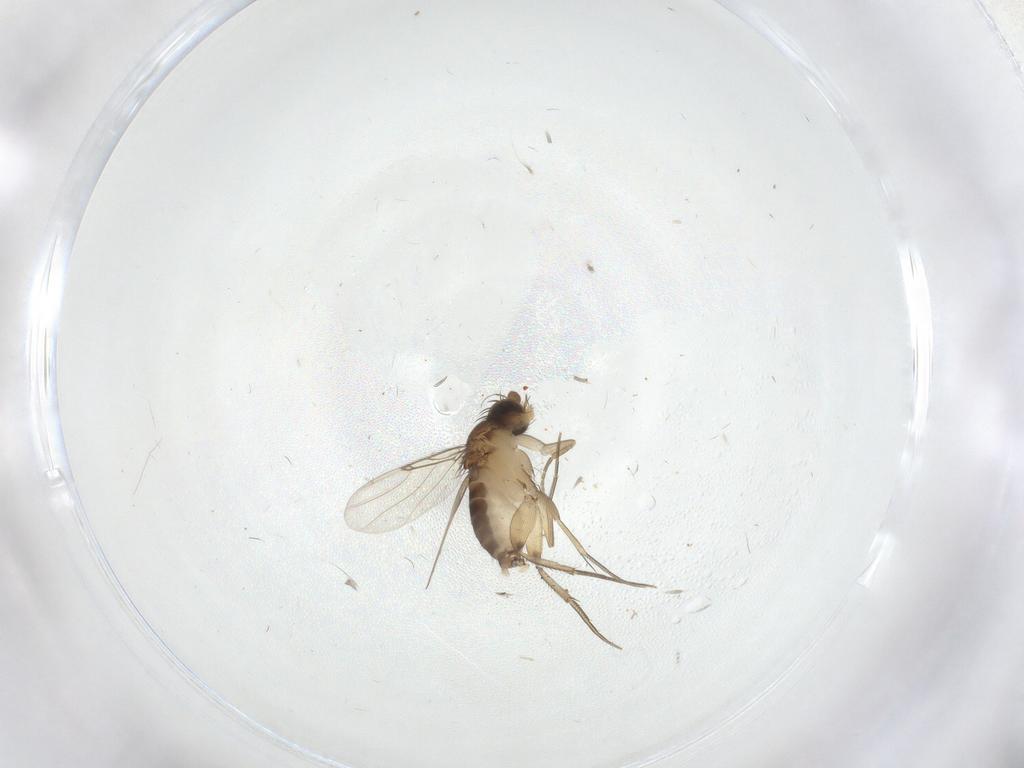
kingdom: Animalia
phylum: Arthropoda
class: Insecta
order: Diptera
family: Phoridae
